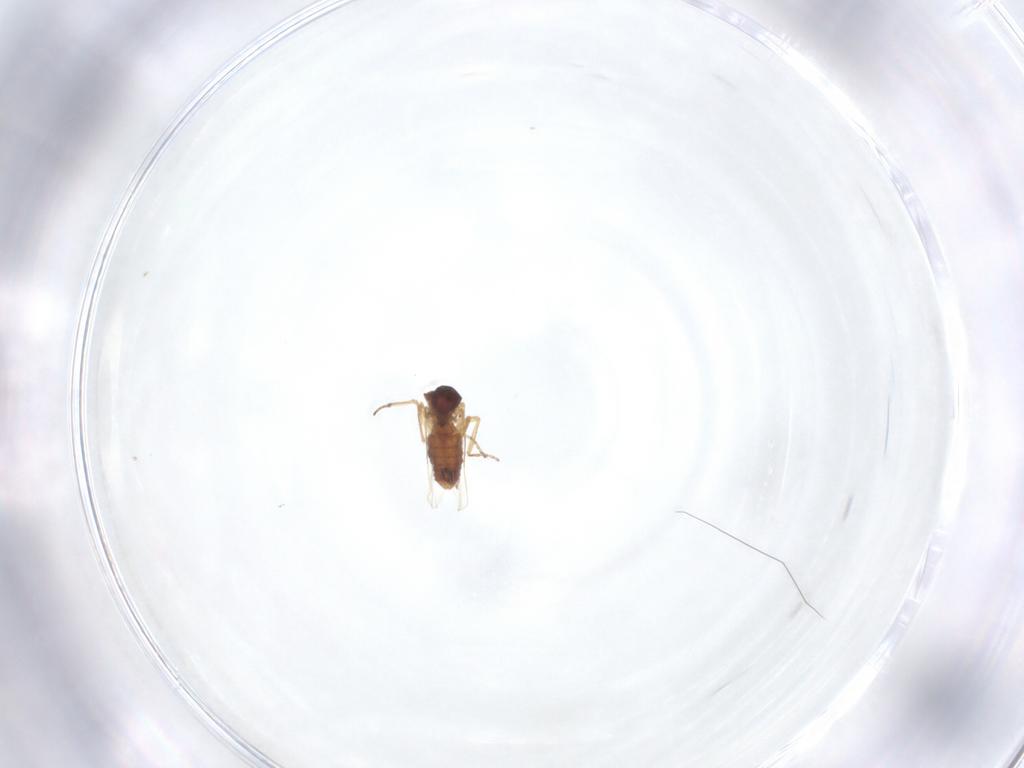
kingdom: Animalia
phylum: Arthropoda
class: Insecta
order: Diptera
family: Ceratopogonidae
